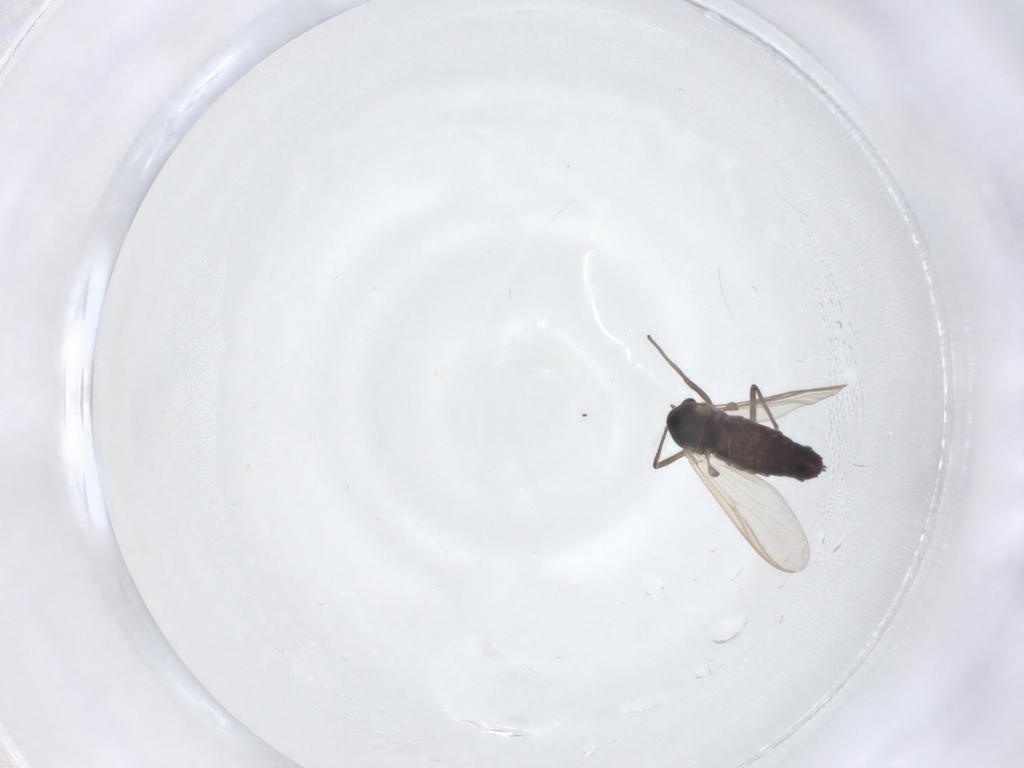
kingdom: Animalia
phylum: Arthropoda
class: Insecta
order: Diptera
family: Chironomidae
